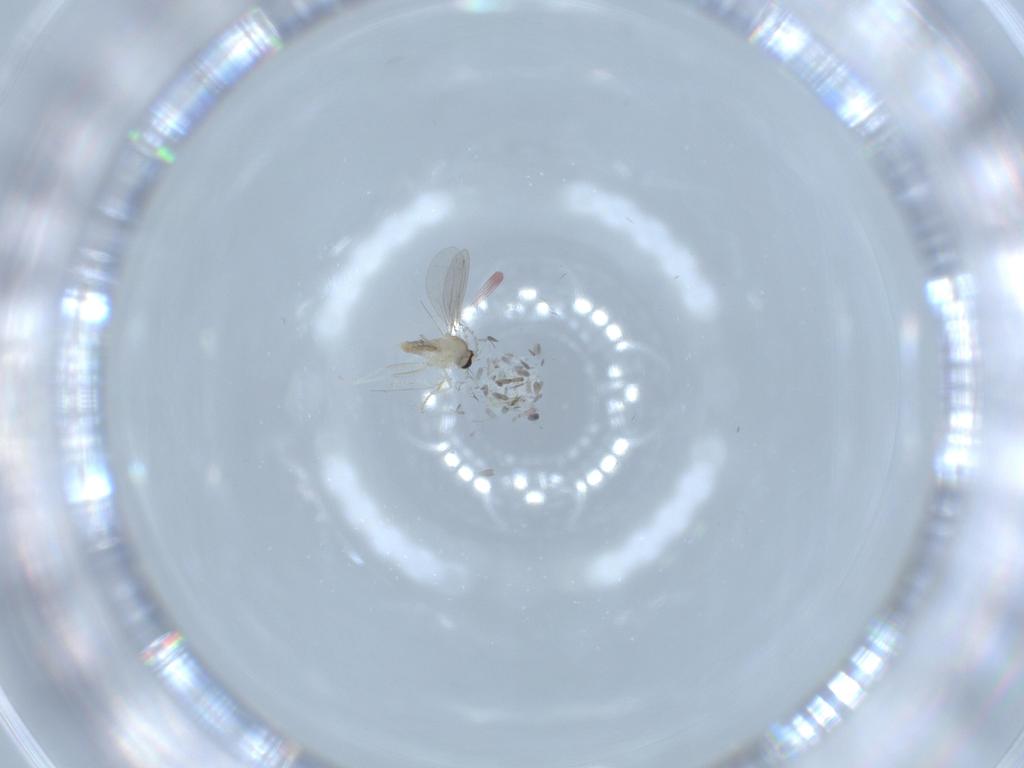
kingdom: Animalia
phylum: Arthropoda
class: Insecta
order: Diptera
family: Cecidomyiidae
